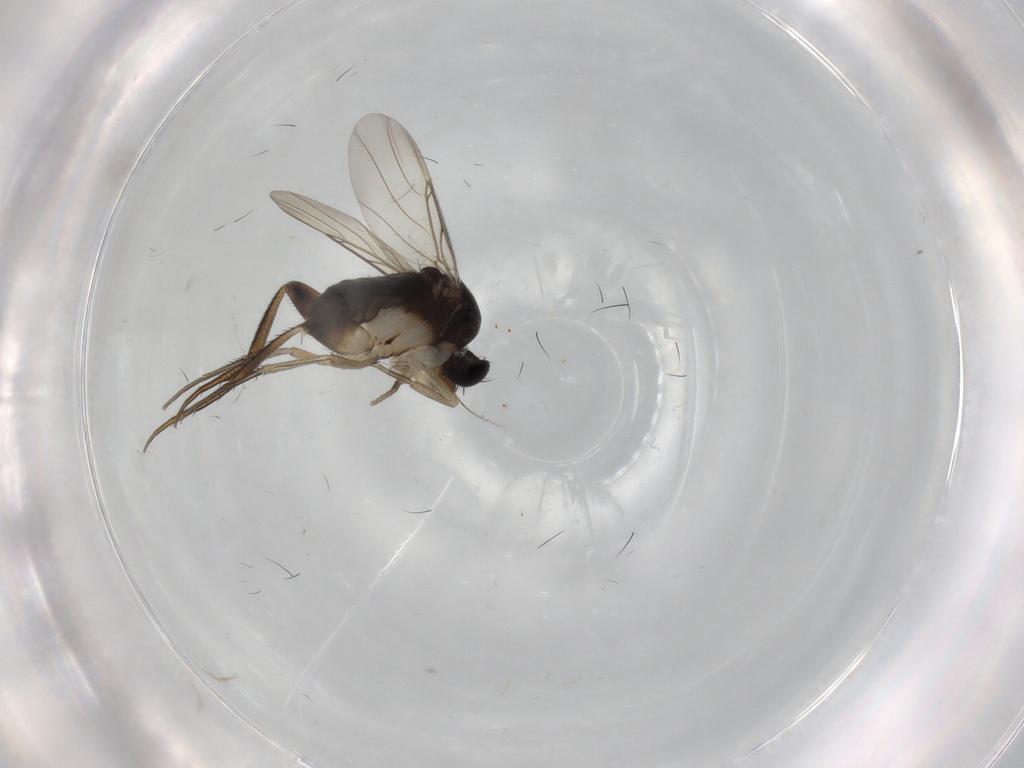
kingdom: Animalia
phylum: Arthropoda
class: Insecta
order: Diptera
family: Phoridae
